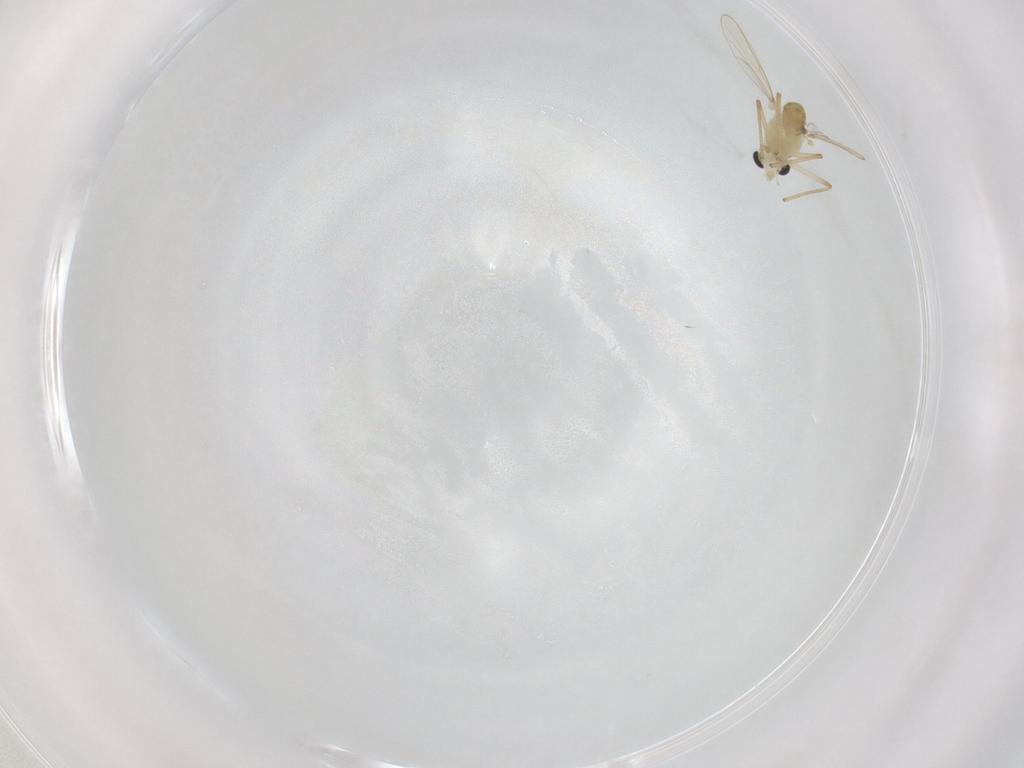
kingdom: Animalia
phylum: Arthropoda
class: Insecta
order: Diptera
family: Chironomidae
